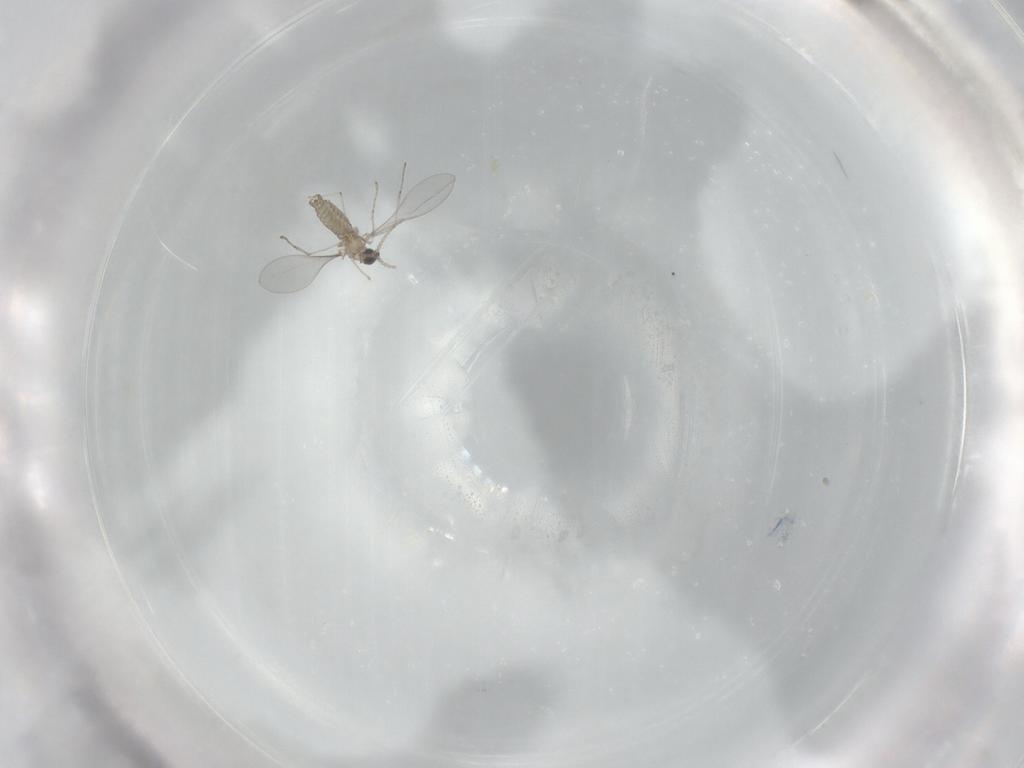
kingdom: Animalia
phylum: Arthropoda
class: Insecta
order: Diptera
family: Cecidomyiidae
